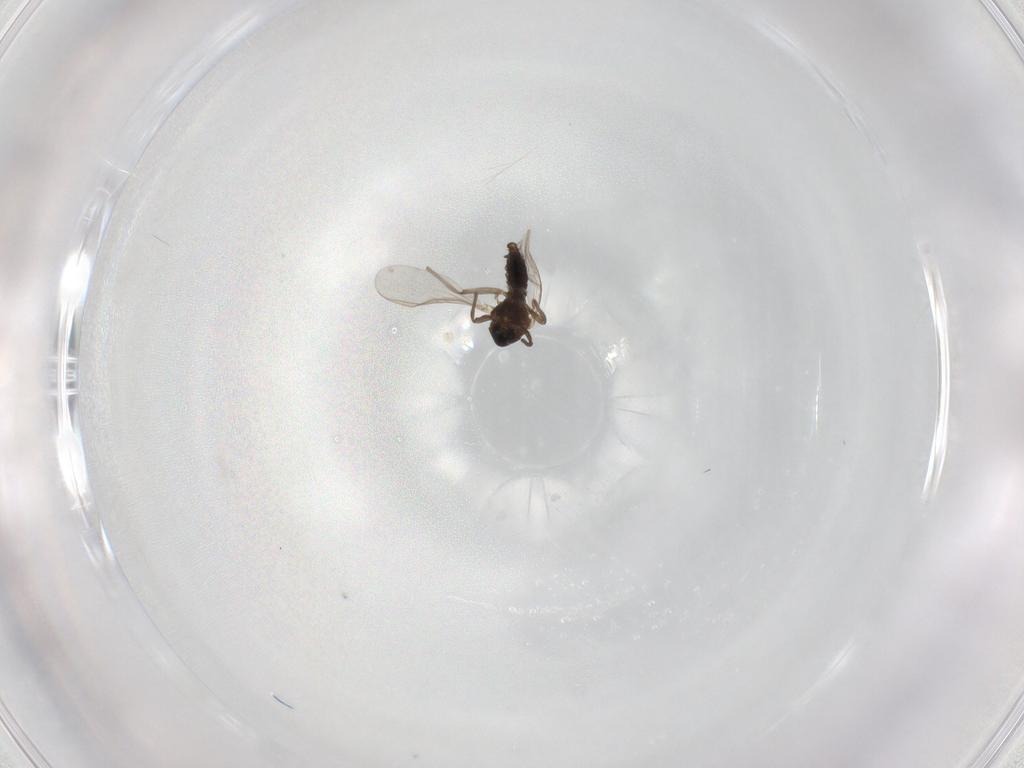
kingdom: Animalia
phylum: Arthropoda
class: Insecta
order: Diptera
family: Chironomidae
